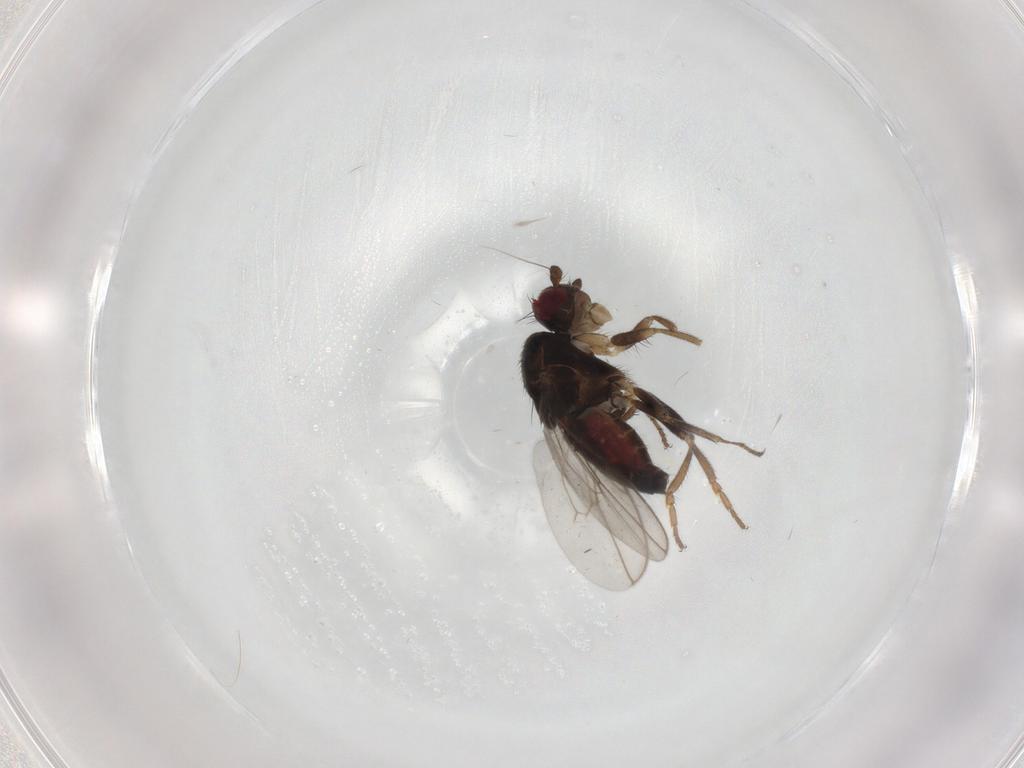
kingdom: Animalia
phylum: Arthropoda
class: Insecta
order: Diptera
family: Sphaeroceridae
